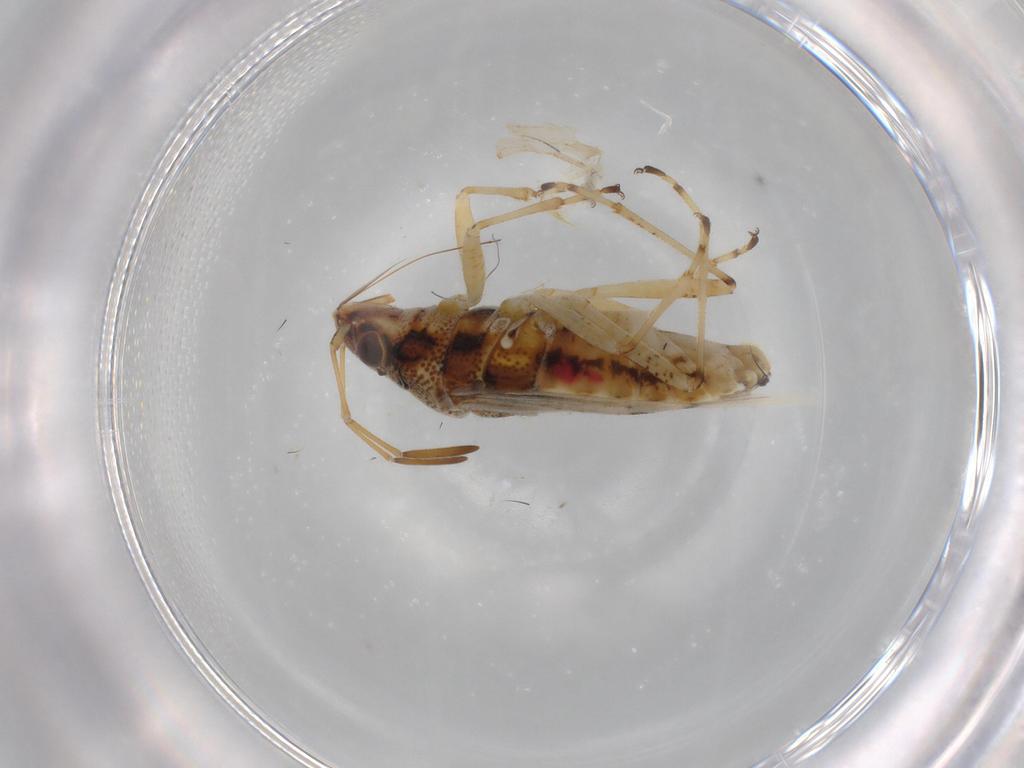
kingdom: Animalia
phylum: Arthropoda
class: Insecta
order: Hemiptera
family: Lygaeidae
